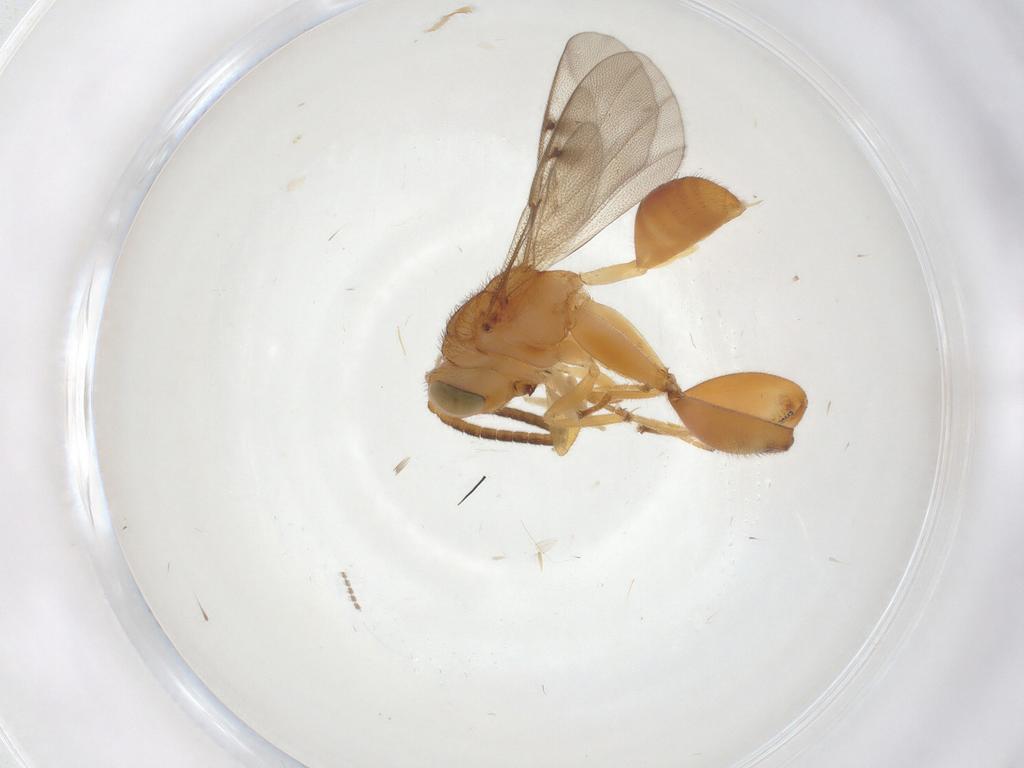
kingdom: Animalia
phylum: Arthropoda
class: Insecta
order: Hymenoptera
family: Chalcididae
